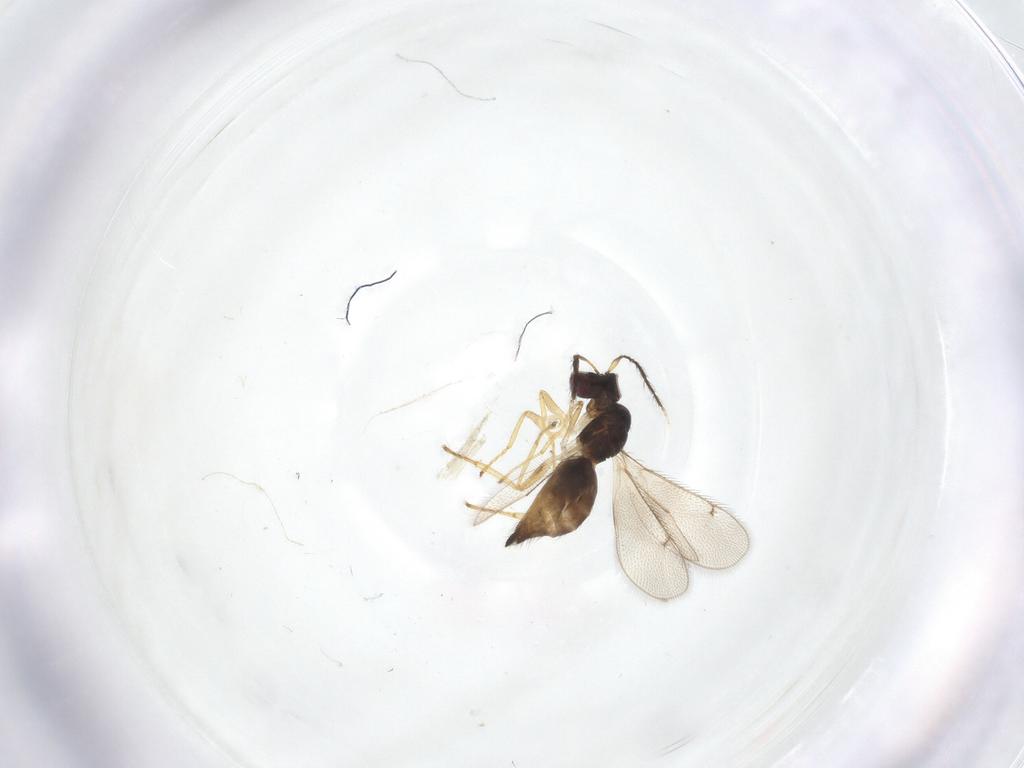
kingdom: Animalia
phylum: Arthropoda
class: Insecta
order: Hymenoptera
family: Eulophidae
